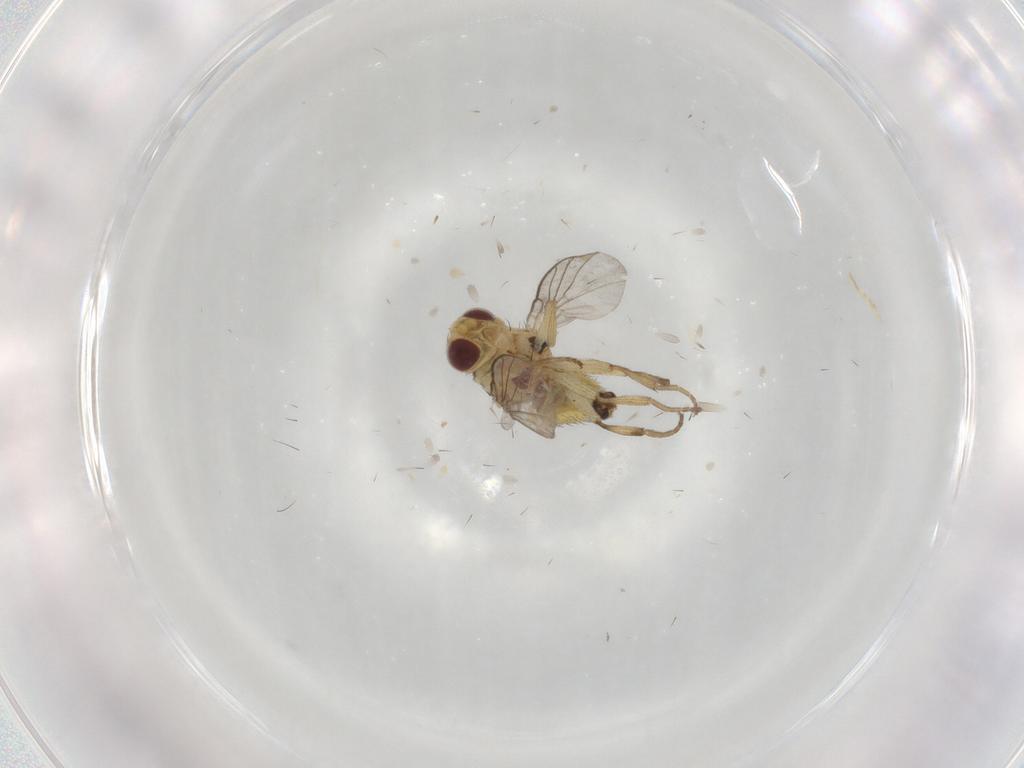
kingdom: Animalia
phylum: Arthropoda
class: Insecta
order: Diptera
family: Agromyzidae
